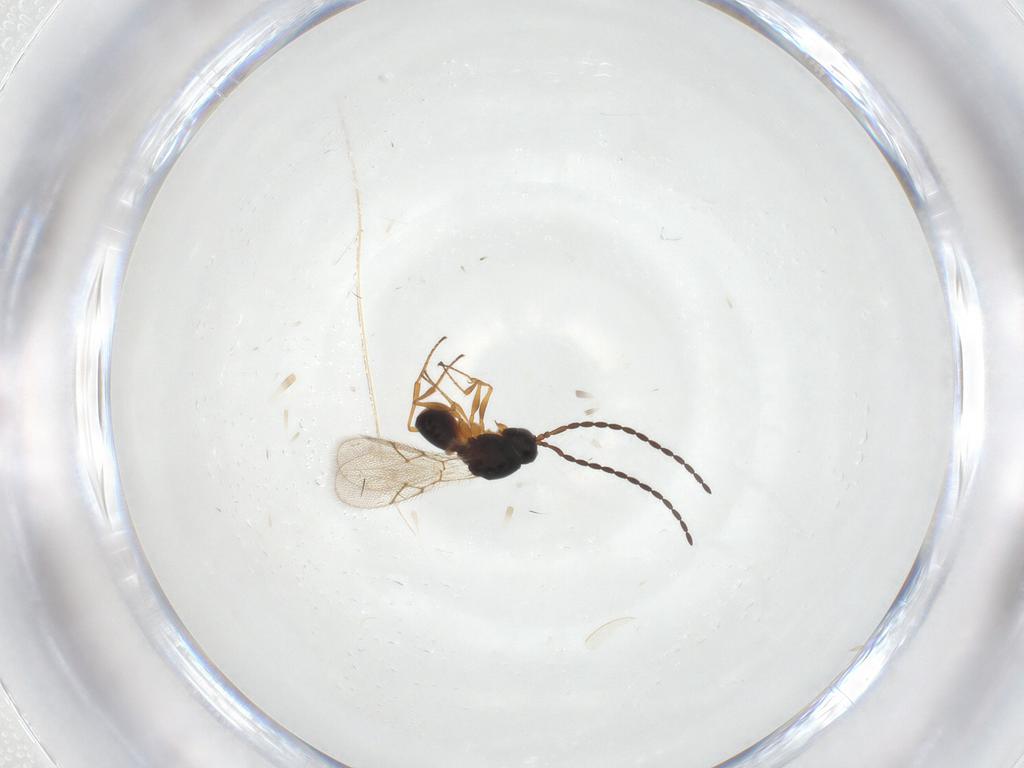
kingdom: Animalia
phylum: Arthropoda
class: Insecta
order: Hymenoptera
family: Figitidae
